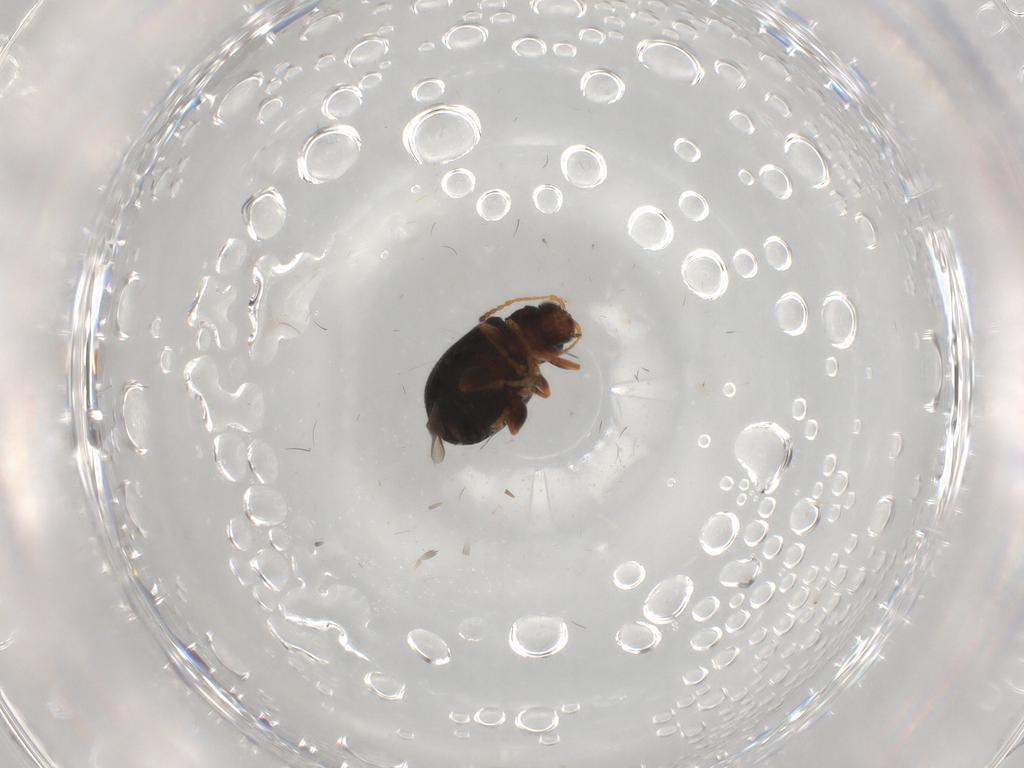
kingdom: Animalia
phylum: Arthropoda
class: Insecta
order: Coleoptera
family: Chrysomelidae
